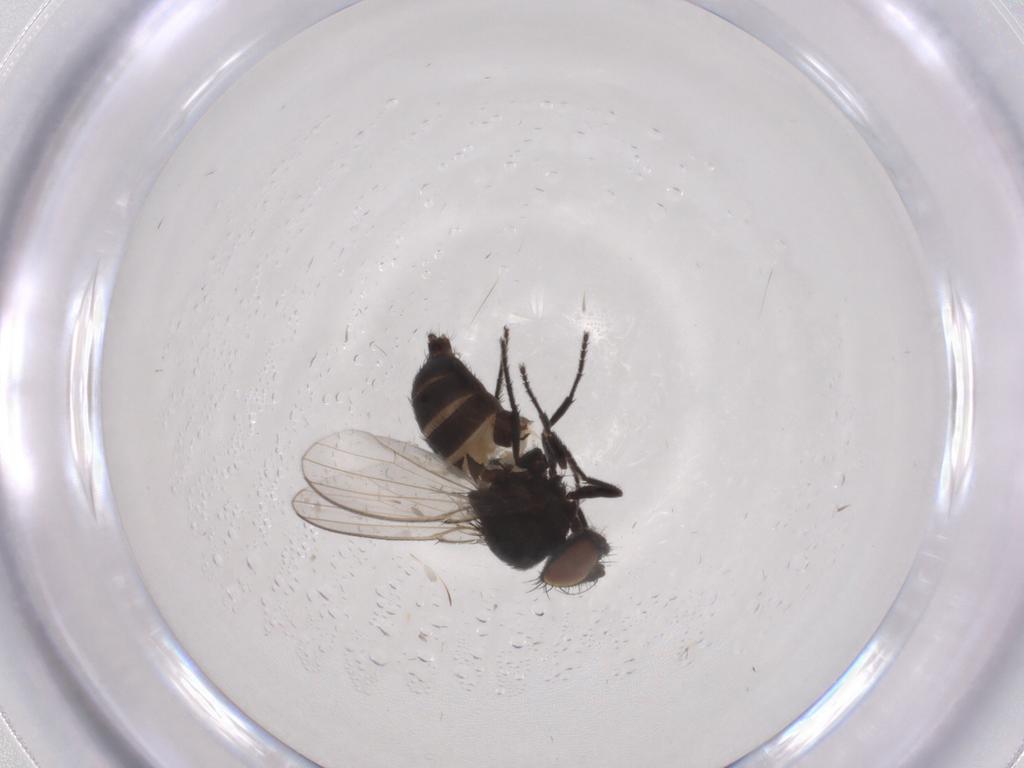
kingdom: Animalia
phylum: Arthropoda
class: Insecta
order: Diptera
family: Milichiidae
